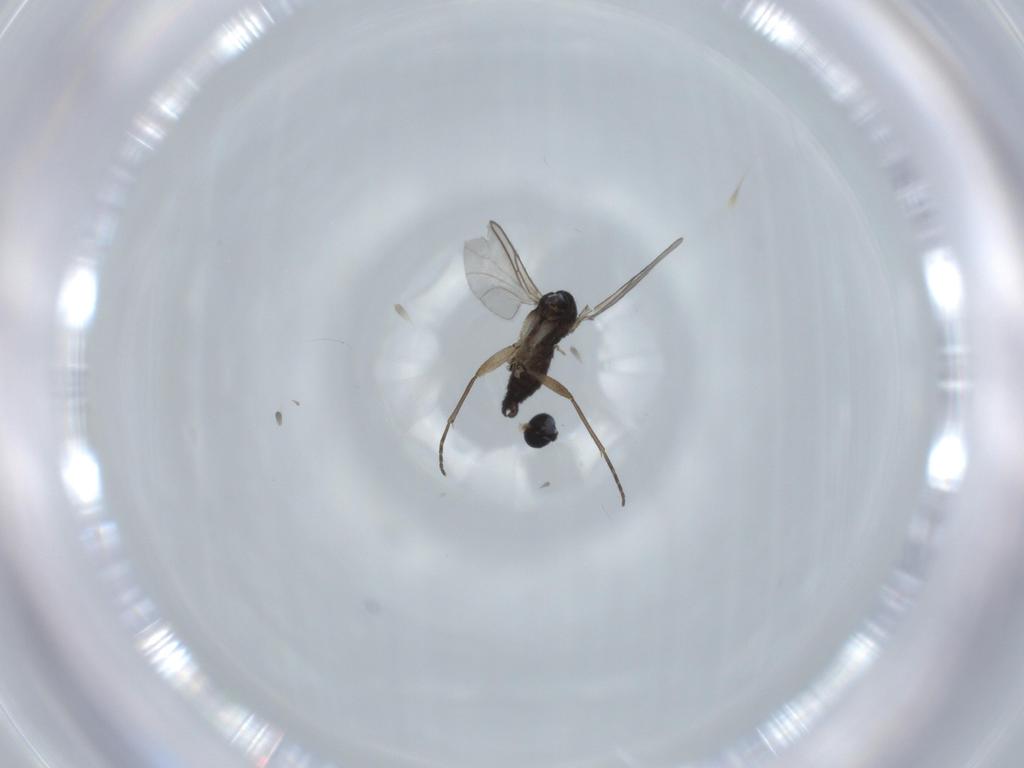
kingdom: Animalia
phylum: Arthropoda
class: Insecta
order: Diptera
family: Sciaridae
